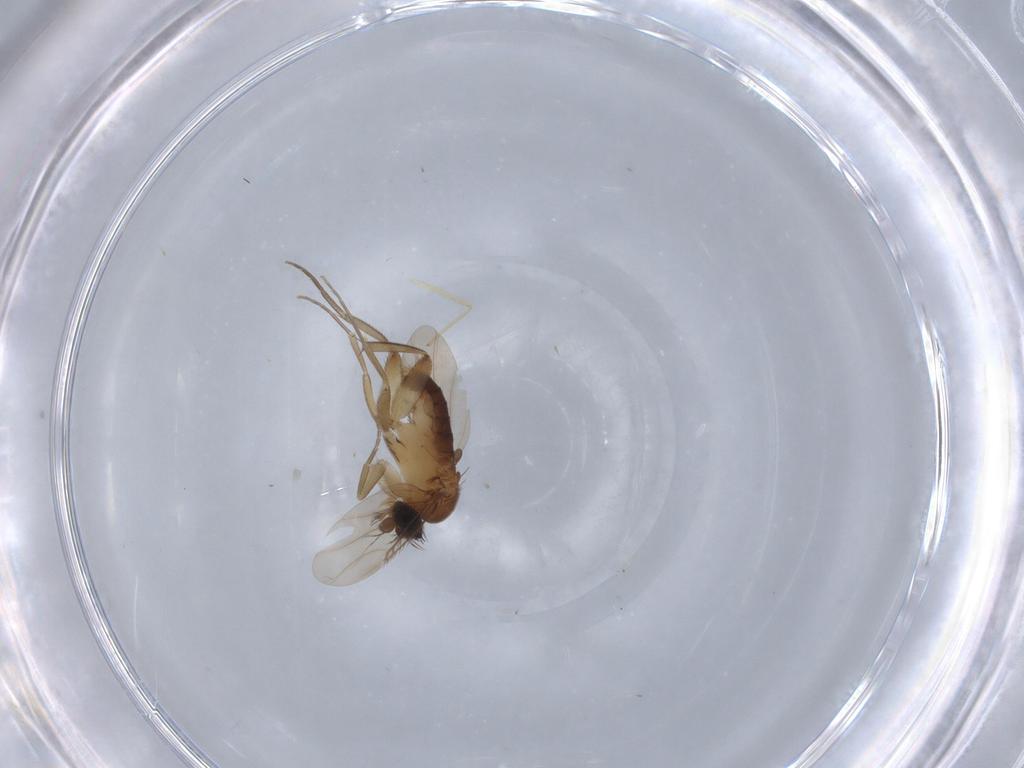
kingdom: Animalia
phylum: Arthropoda
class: Insecta
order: Diptera
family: Phoridae
